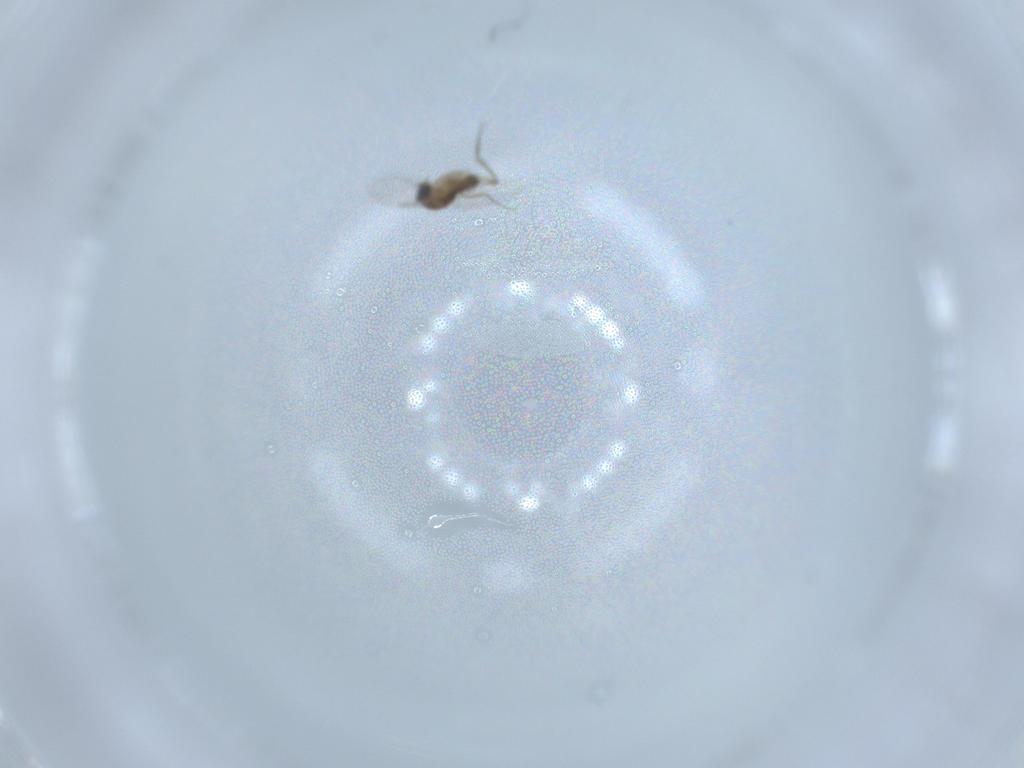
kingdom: Animalia
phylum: Arthropoda
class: Insecta
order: Diptera
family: Phoridae
